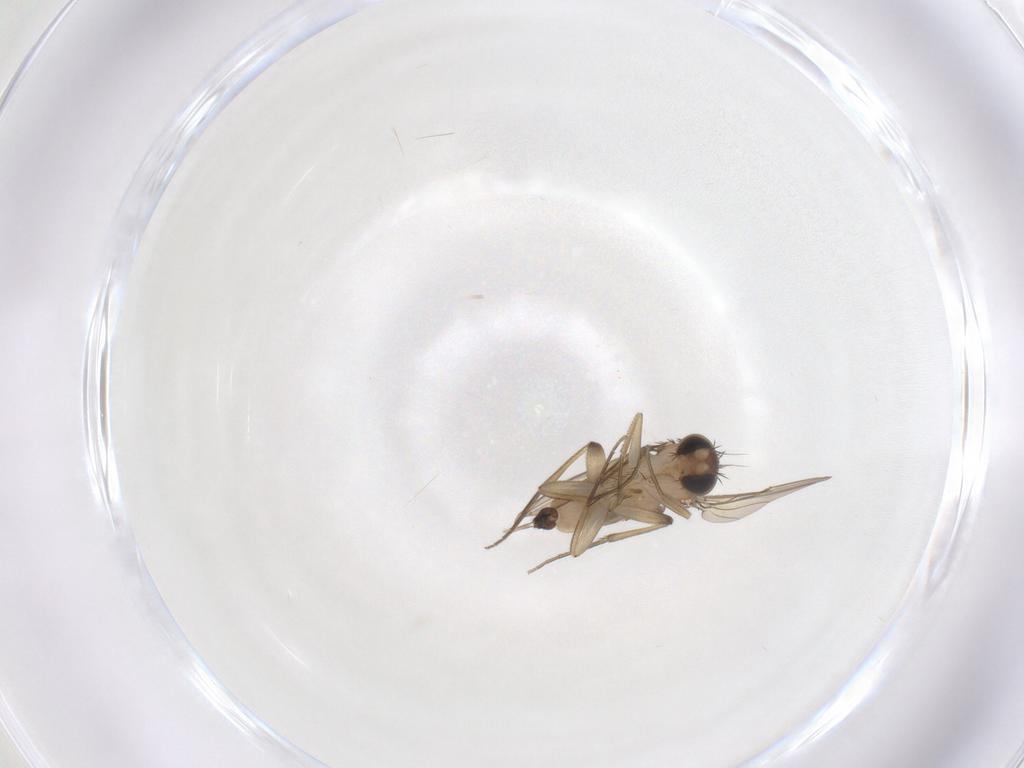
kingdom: Animalia
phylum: Arthropoda
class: Insecta
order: Diptera
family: Phoridae
